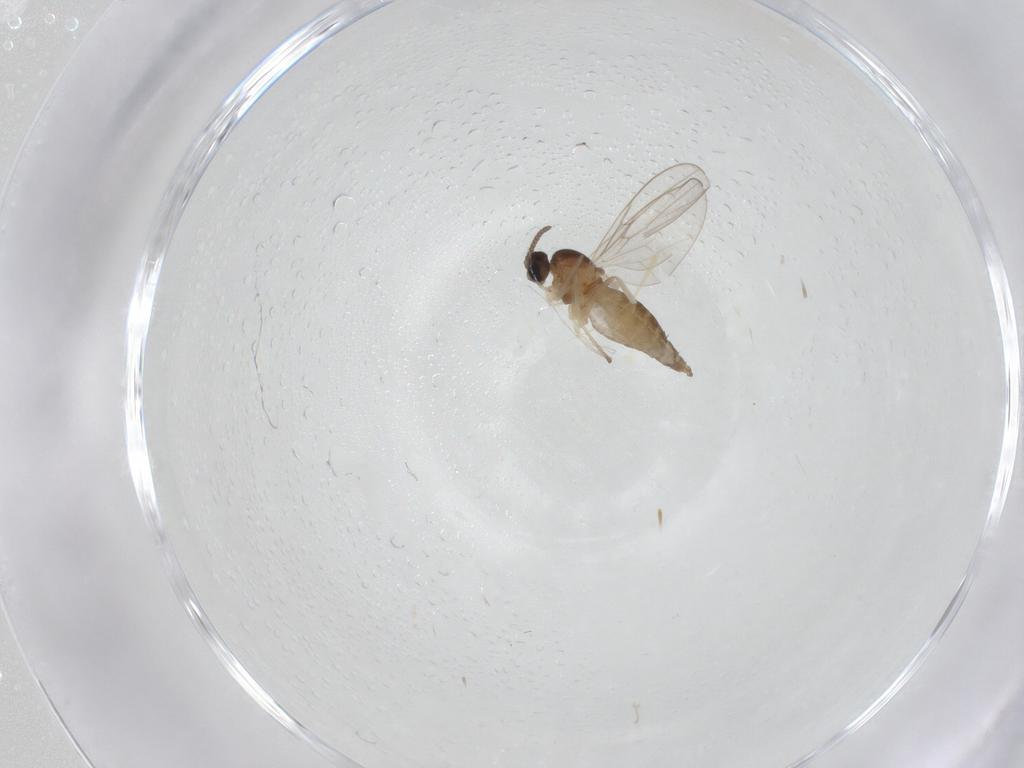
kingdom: Animalia
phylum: Arthropoda
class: Insecta
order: Diptera
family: Cecidomyiidae
